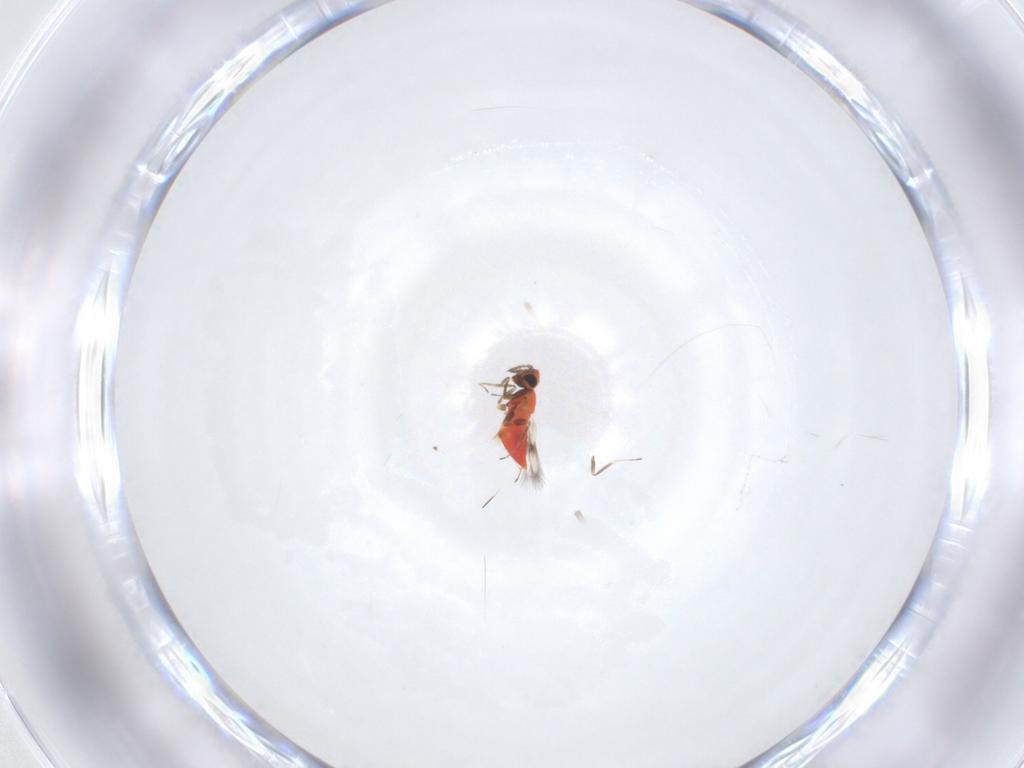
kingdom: Animalia
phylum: Arthropoda
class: Insecta
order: Hymenoptera
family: Trichogrammatidae
